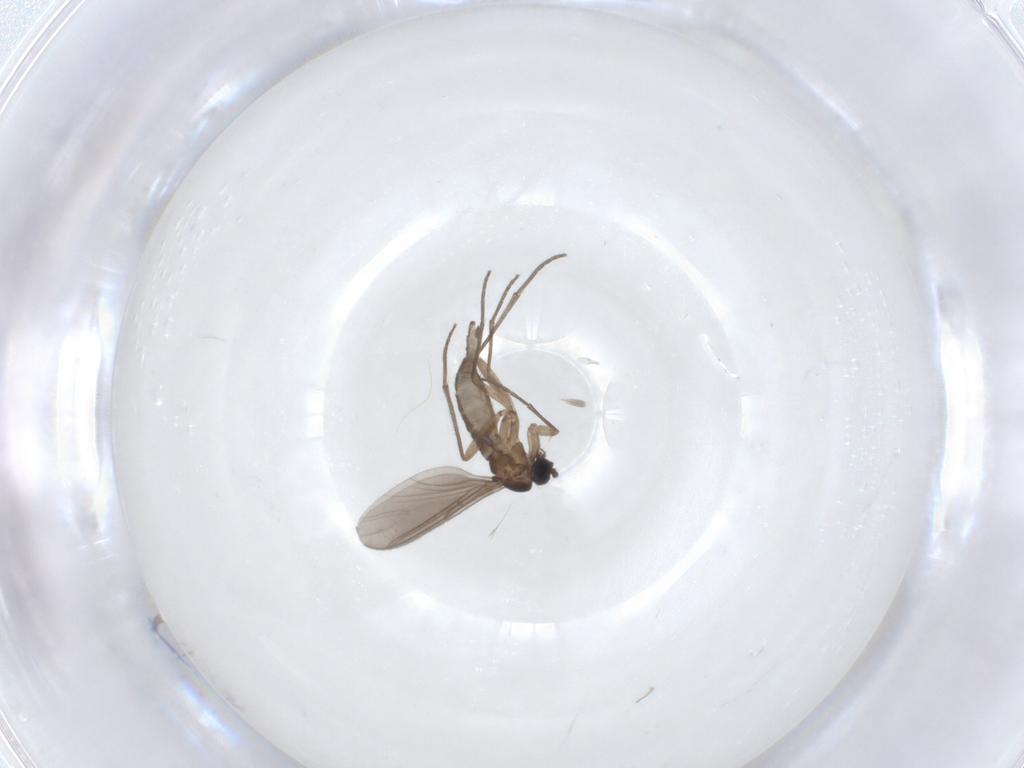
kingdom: Animalia
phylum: Arthropoda
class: Insecta
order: Diptera
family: Sciaridae
